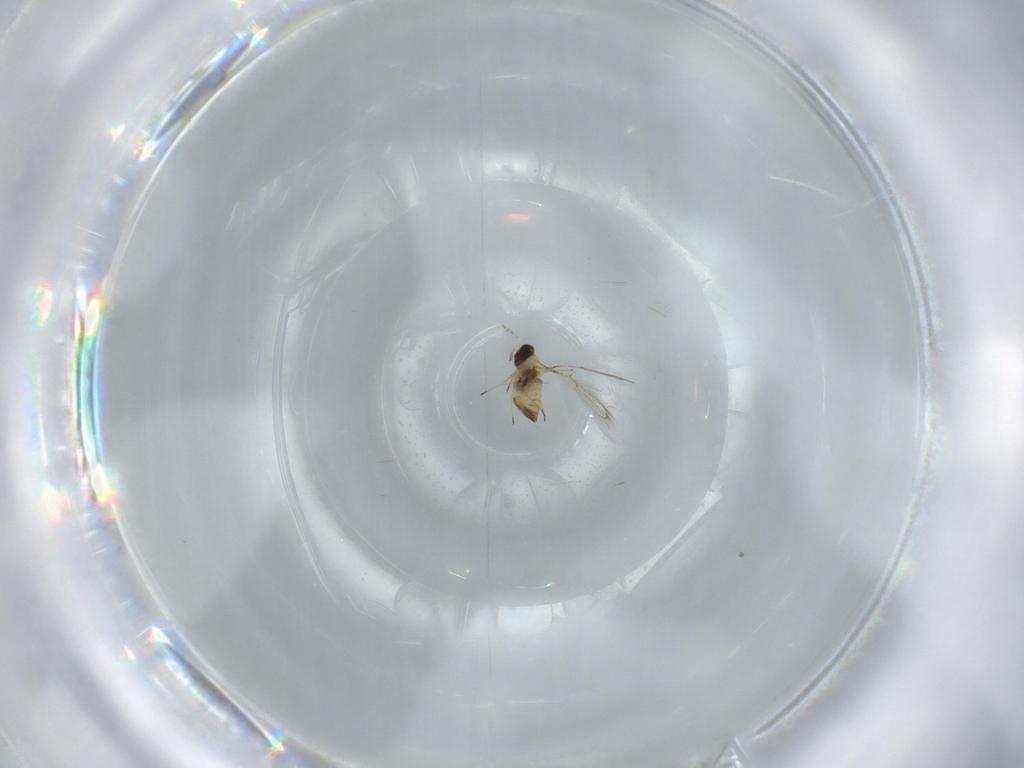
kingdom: Animalia
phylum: Arthropoda
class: Insecta
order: Hymenoptera
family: Trichogrammatidae
